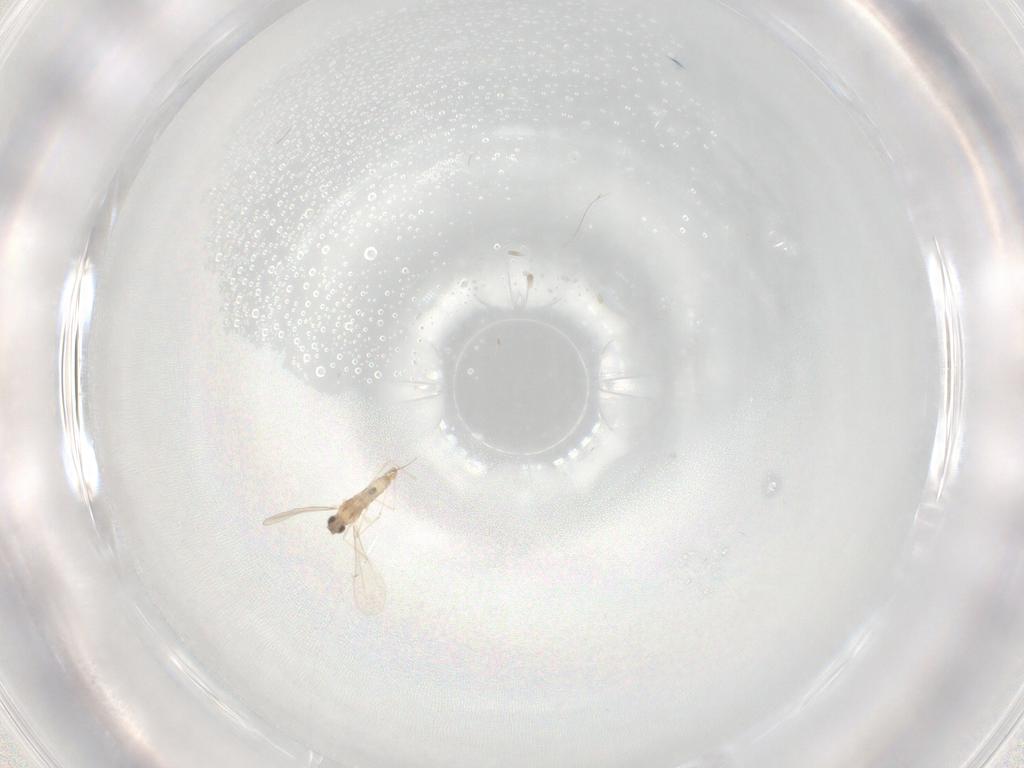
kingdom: Animalia
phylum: Arthropoda
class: Insecta
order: Diptera
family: Cecidomyiidae
